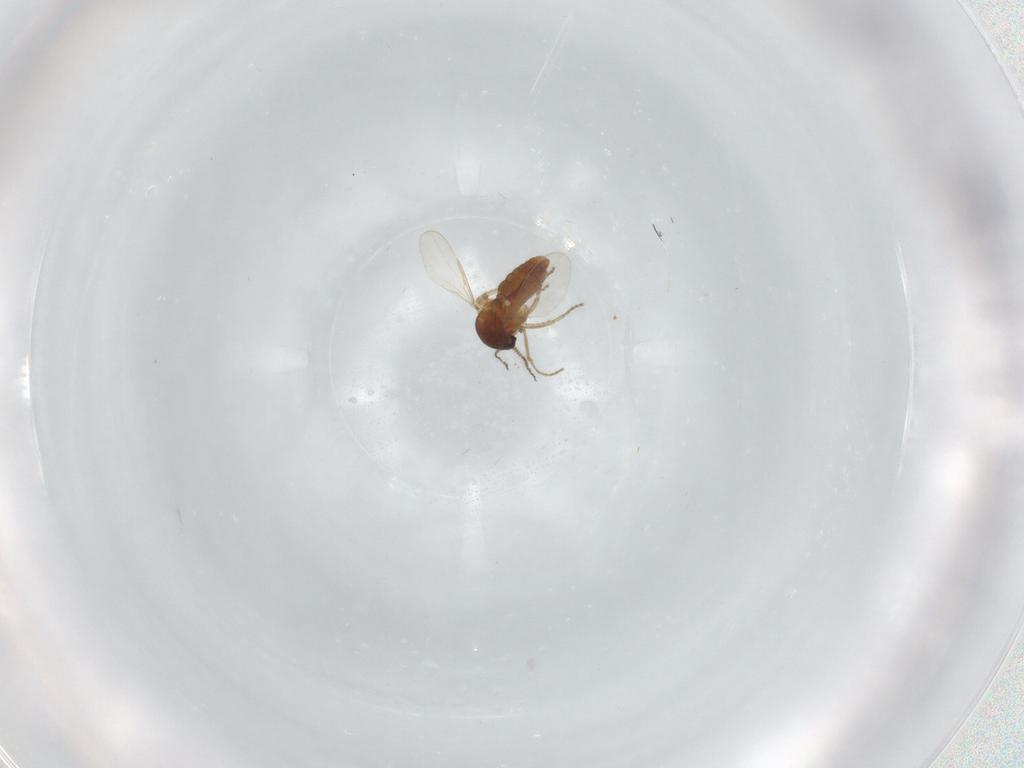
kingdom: Animalia
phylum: Arthropoda
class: Insecta
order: Diptera
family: Ceratopogonidae
